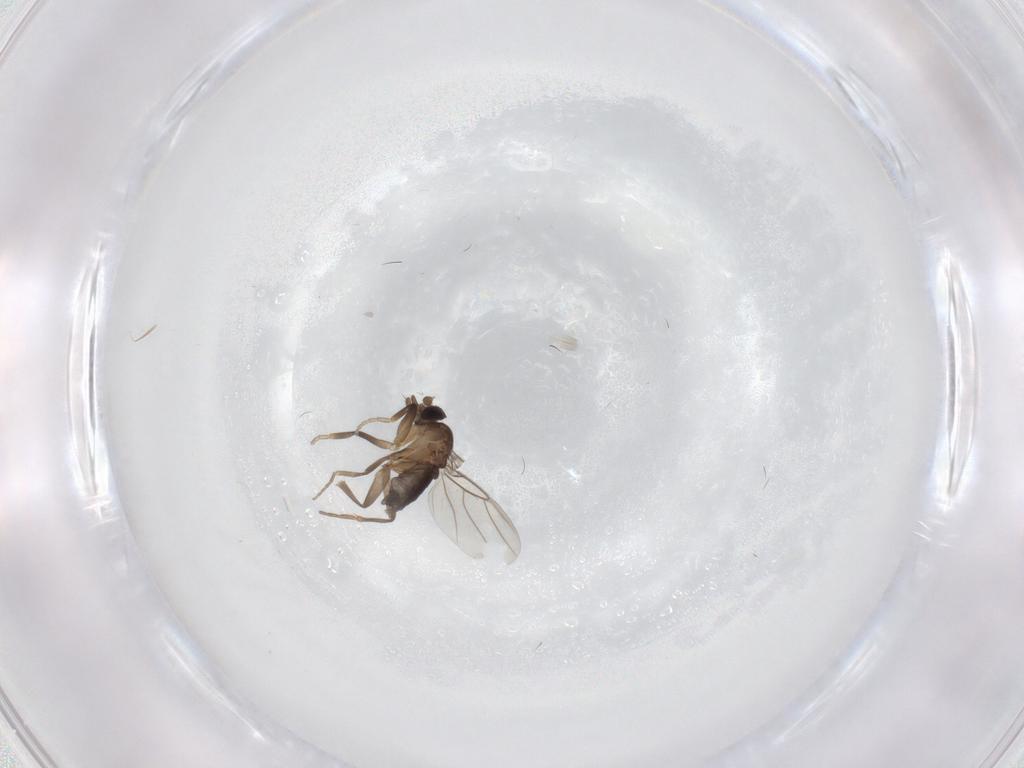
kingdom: Animalia
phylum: Arthropoda
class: Insecta
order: Diptera
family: Phoridae
